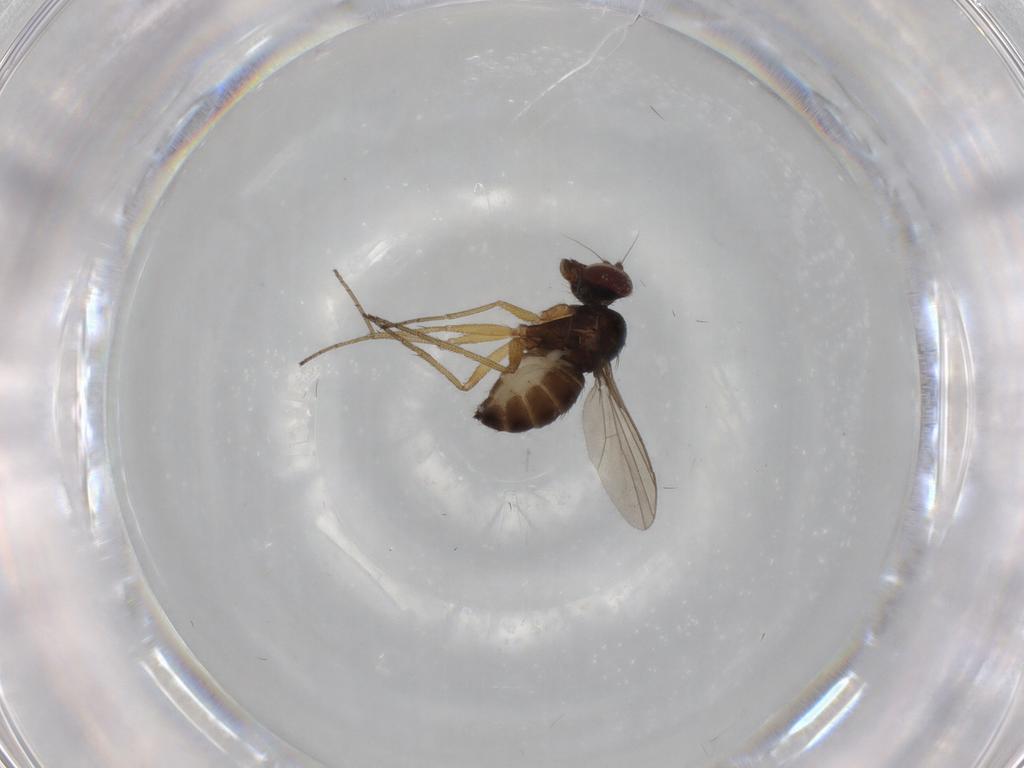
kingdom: Animalia
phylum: Arthropoda
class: Insecta
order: Diptera
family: Dolichopodidae
